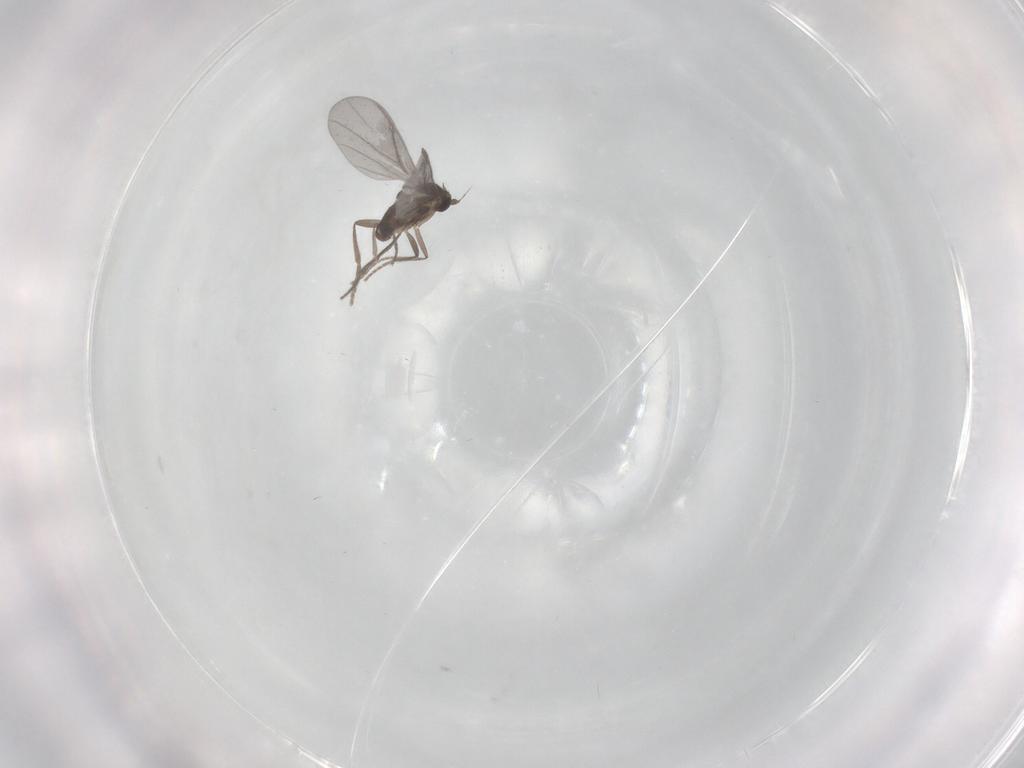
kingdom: Animalia
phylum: Arthropoda
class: Insecta
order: Diptera
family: Phoridae
